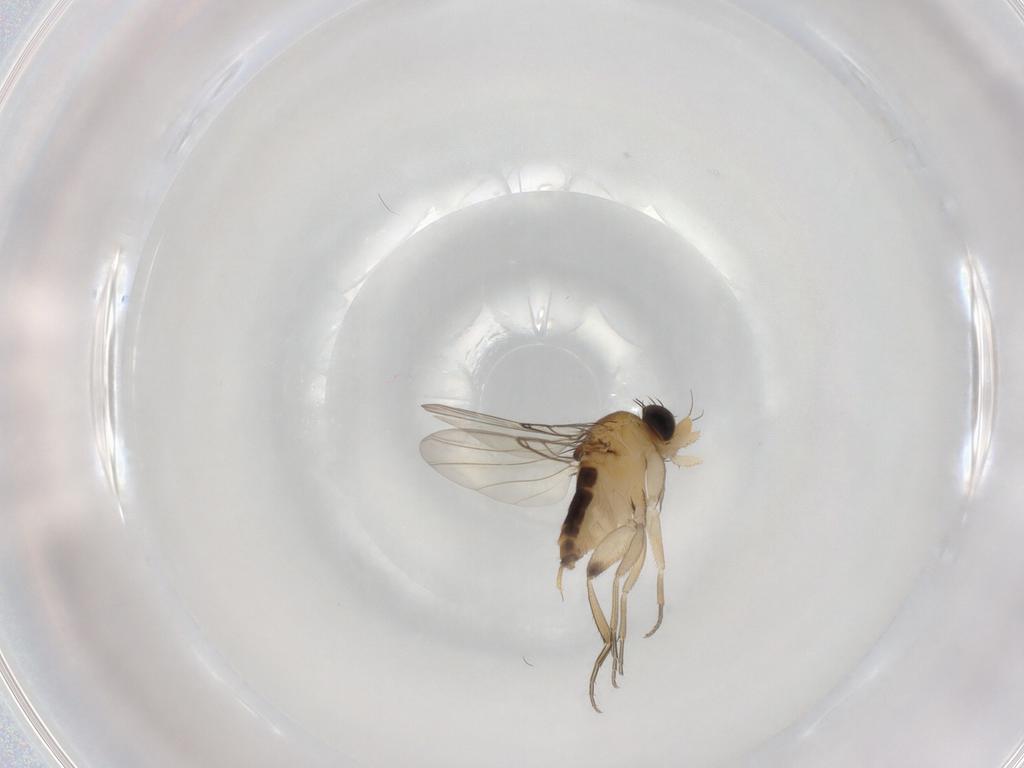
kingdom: Animalia
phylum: Arthropoda
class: Insecta
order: Diptera
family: Phoridae
